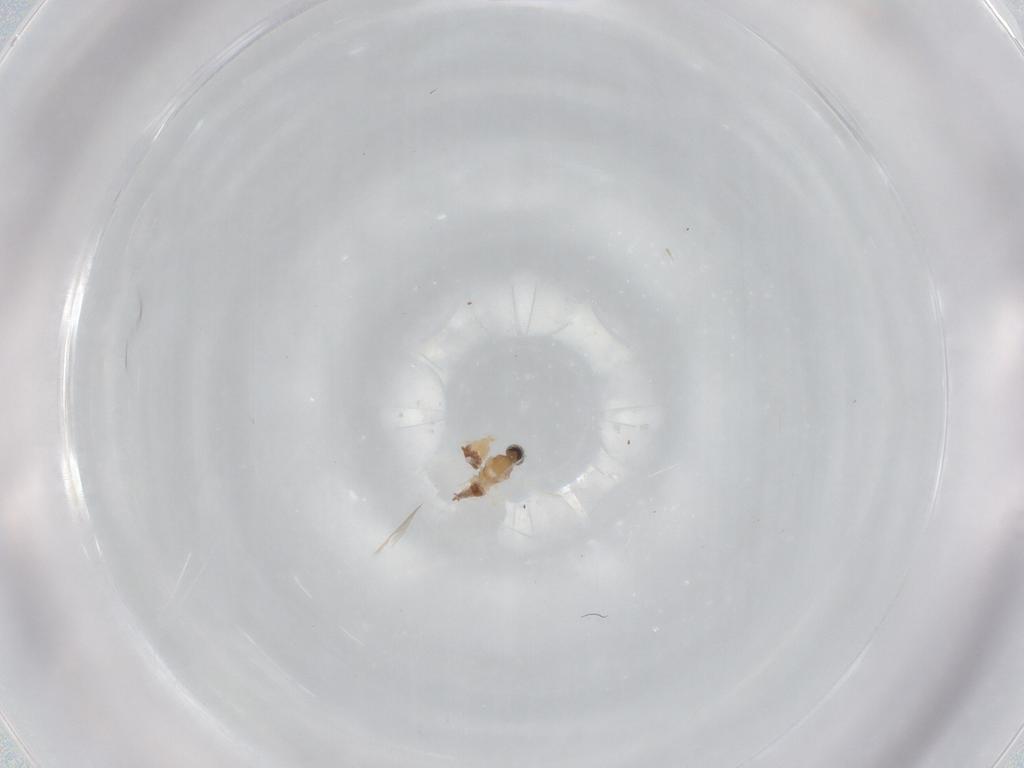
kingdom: Animalia
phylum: Arthropoda
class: Insecta
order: Diptera
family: Cecidomyiidae
